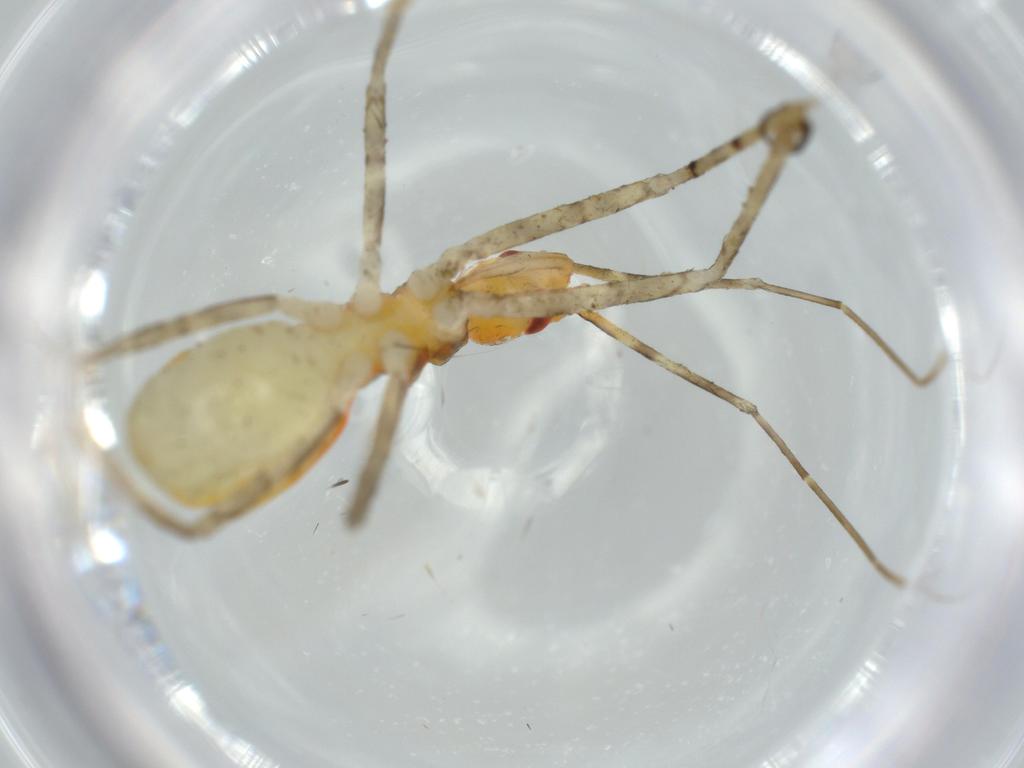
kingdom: Animalia
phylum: Arthropoda
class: Insecta
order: Hemiptera
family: Reduviidae
